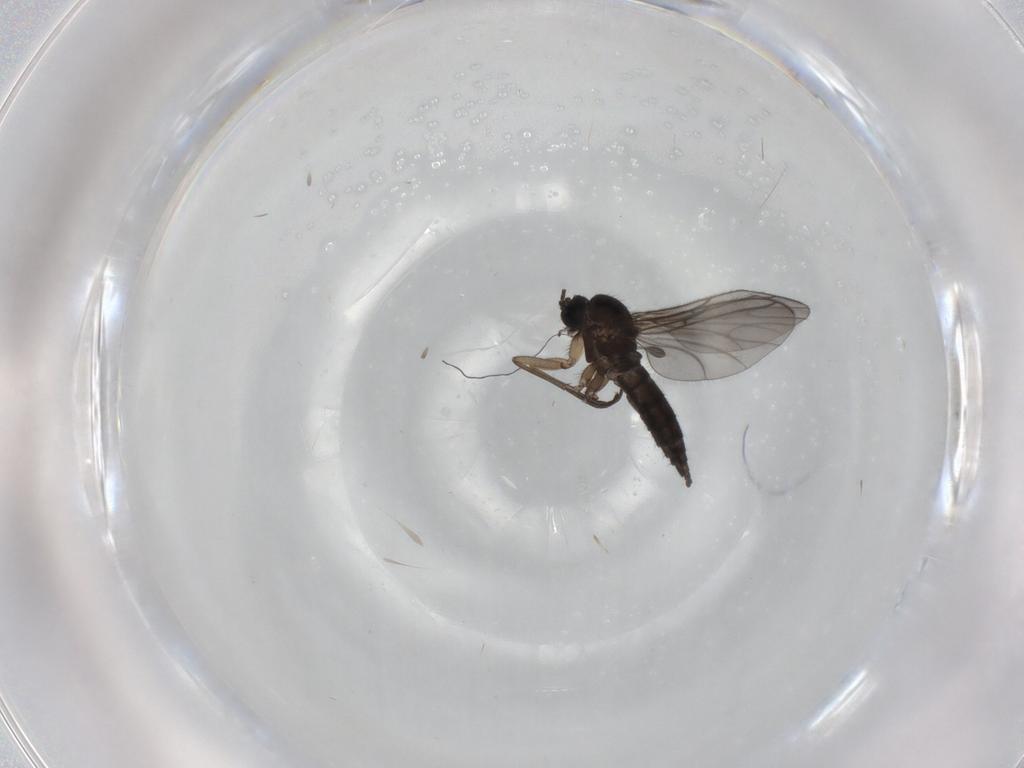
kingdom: Animalia
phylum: Arthropoda
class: Insecta
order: Diptera
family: Sciaridae
